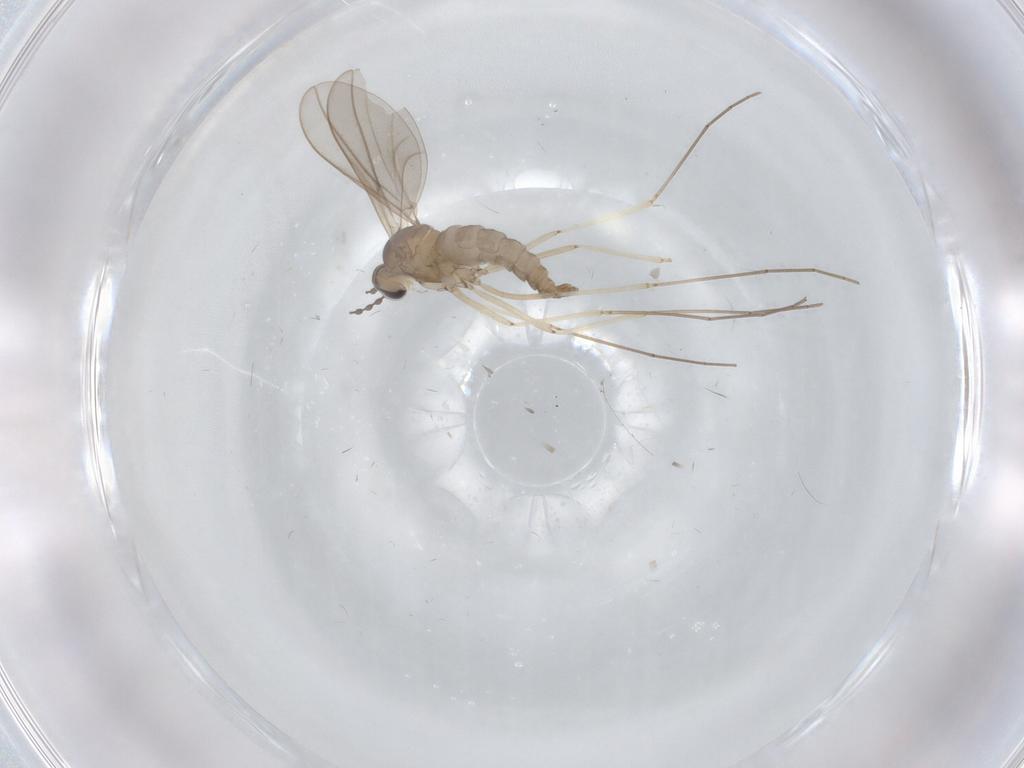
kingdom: Animalia
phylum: Arthropoda
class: Insecta
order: Diptera
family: Cecidomyiidae
